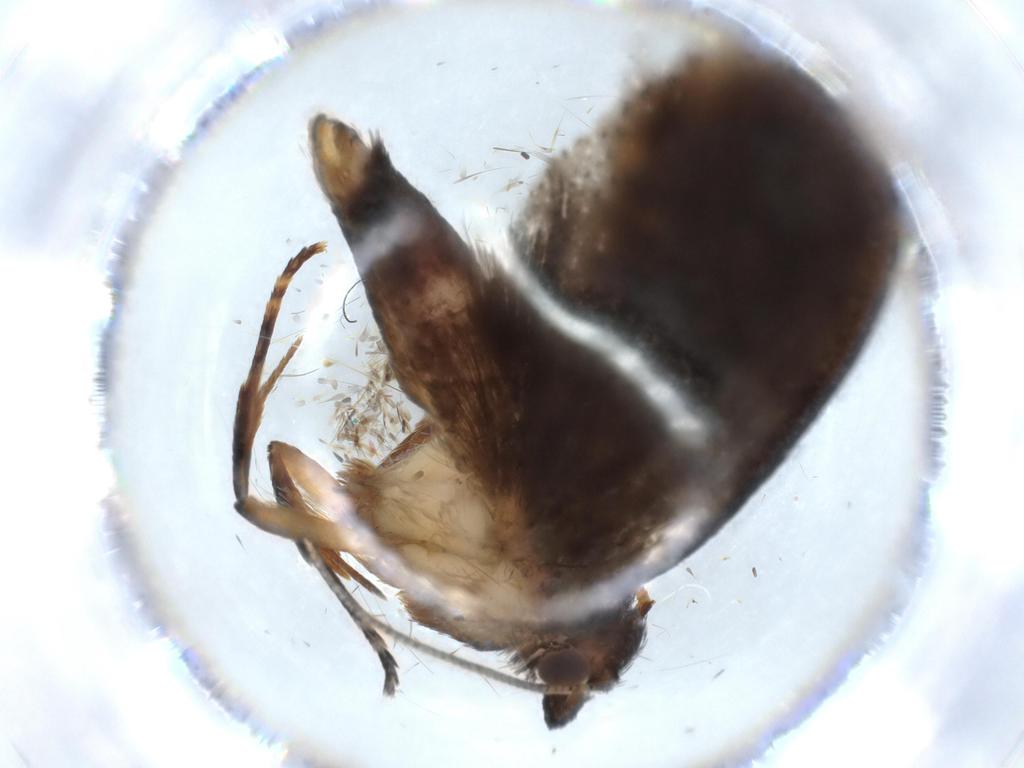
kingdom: Animalia
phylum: Arthropoda
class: Insecta
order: Lepidoptera
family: Tineidae
